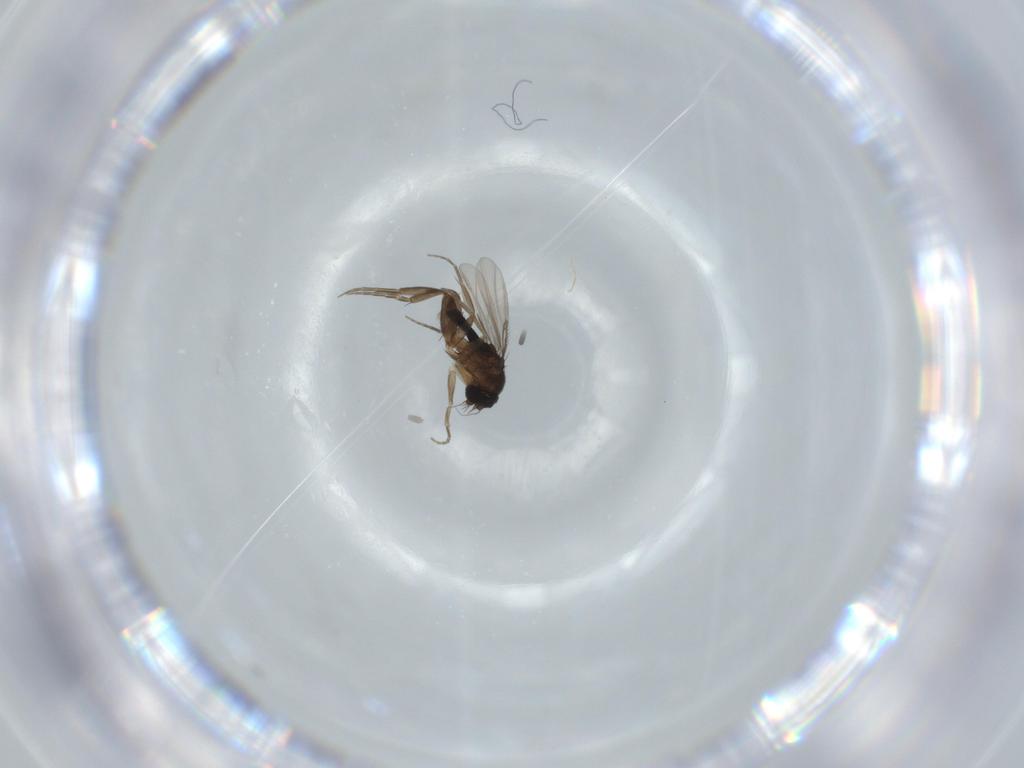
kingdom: Animalia
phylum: Arthropoda
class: Insecta
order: Diptera
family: Phoridae
